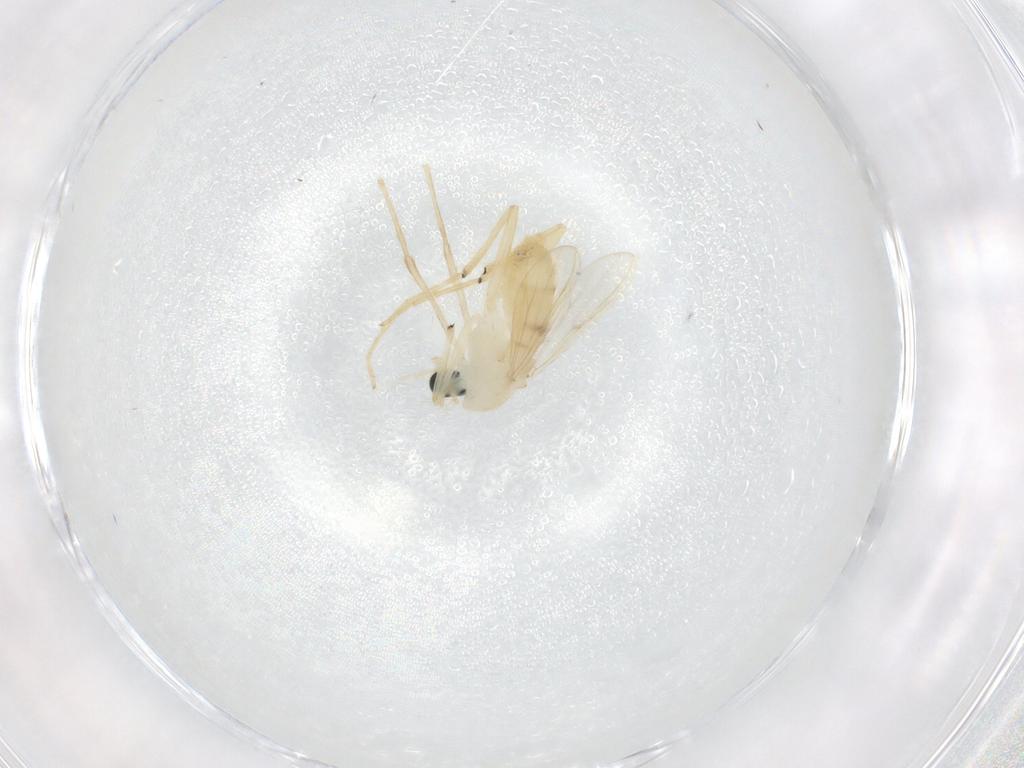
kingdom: Animalia
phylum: Arthropoda
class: Insecta
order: Diptera
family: Chironomidae
